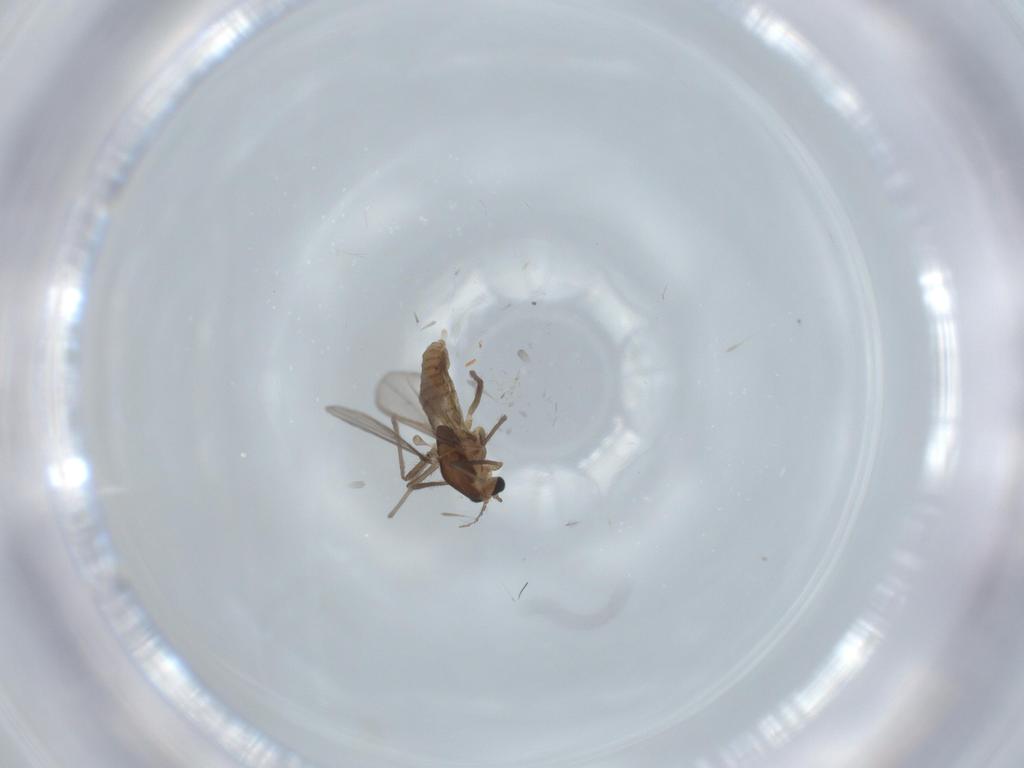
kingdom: Animalia
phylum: Arthropoda
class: Insecta
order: Diptera
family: Chironomidae
